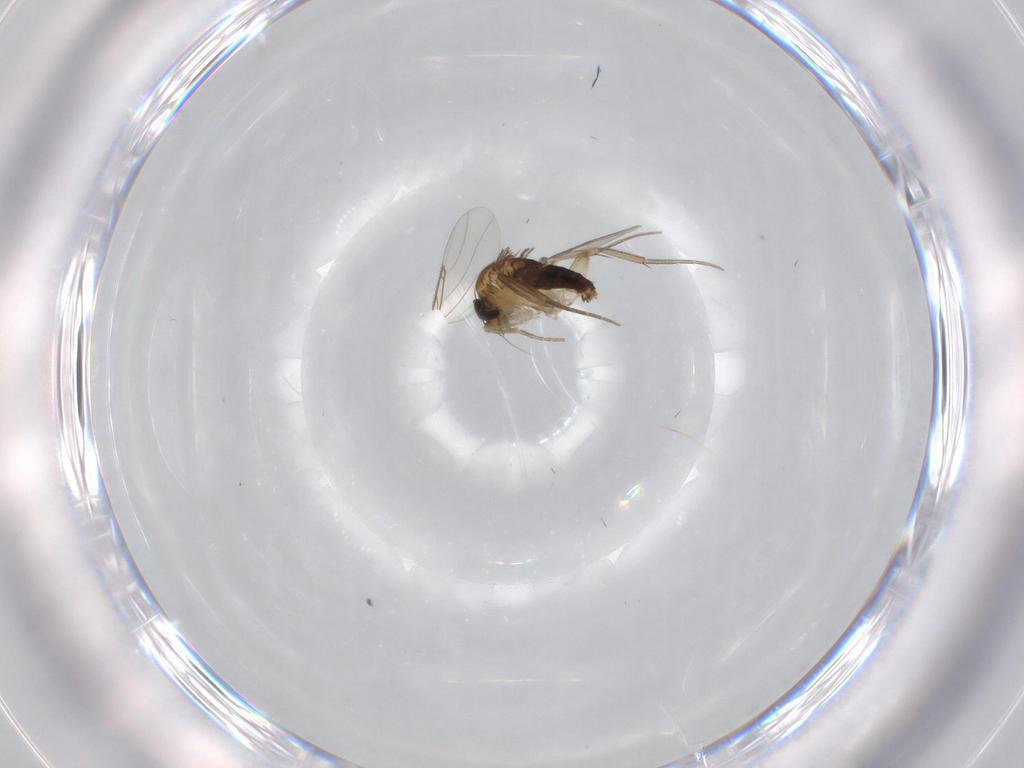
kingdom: Animalia
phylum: Arthropoda
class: Insecta
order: Diptera
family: Phoridae
